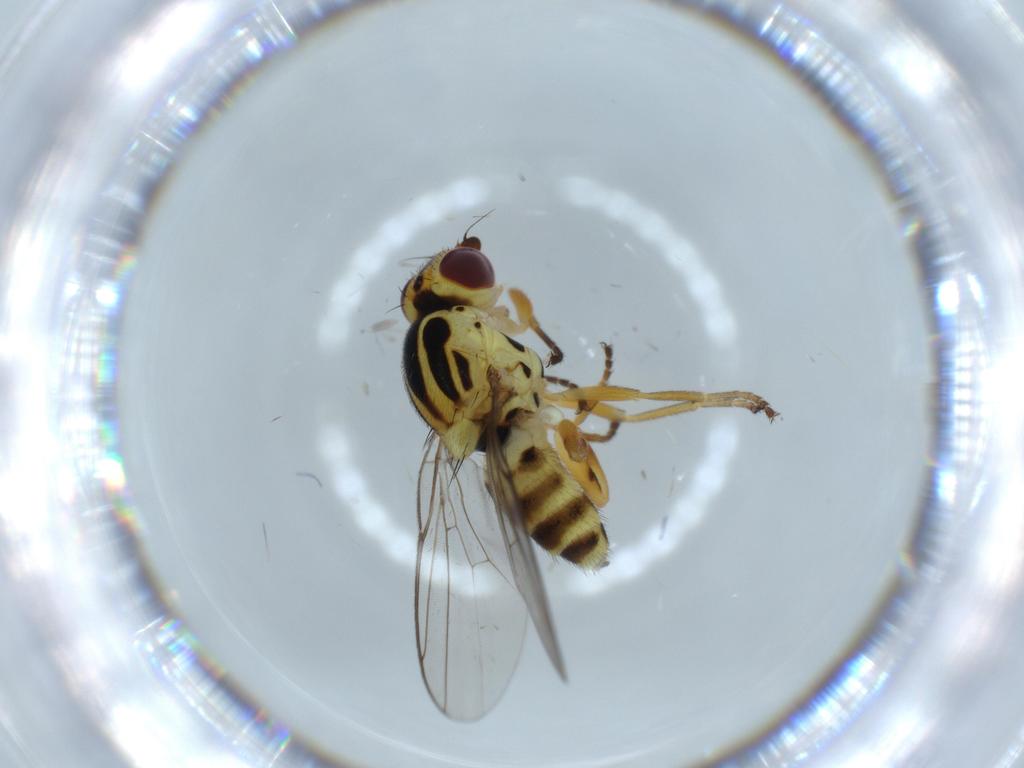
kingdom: Animalia
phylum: Arthropoda
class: Insecta
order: Diptera
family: Chloropidae
